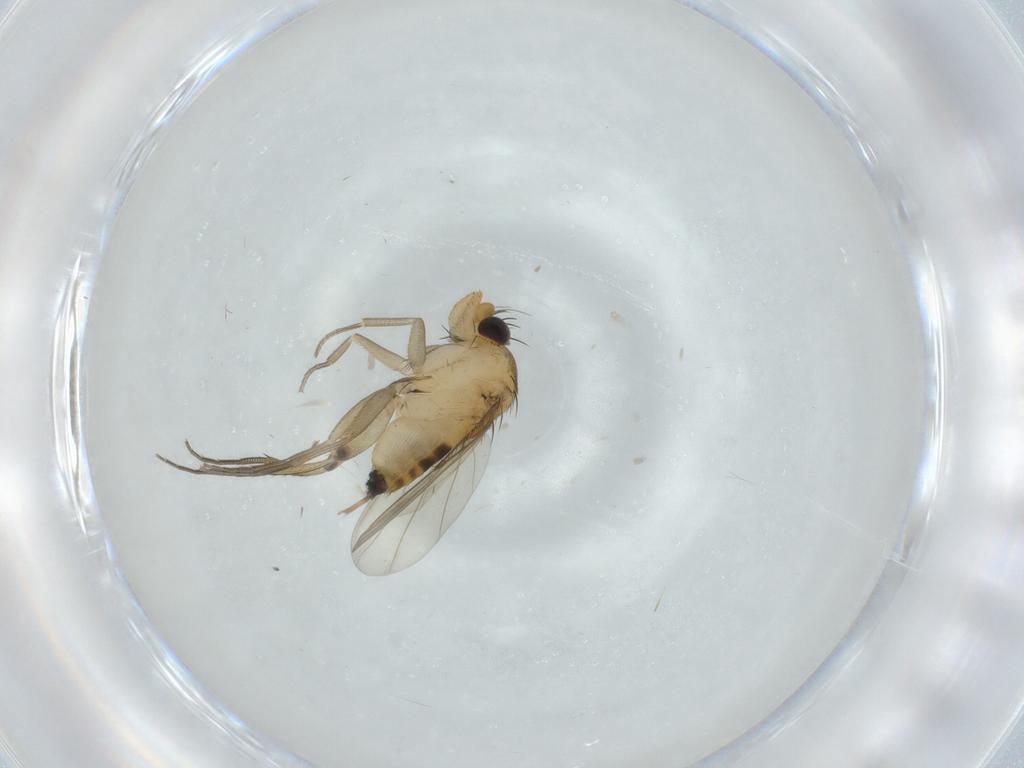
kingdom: Animalia
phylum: Arthropoda
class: Insecta
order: Diptera
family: Phoridae
